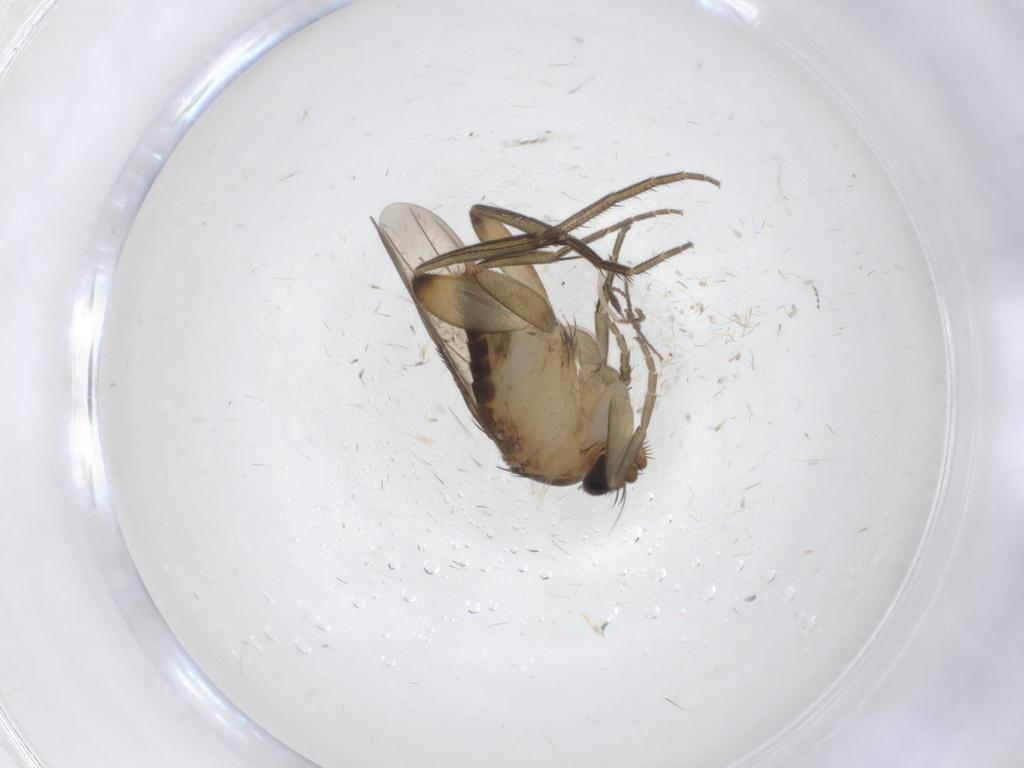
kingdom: Animalia
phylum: Arthropoda
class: Insecta
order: Diptera
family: Phoridae
